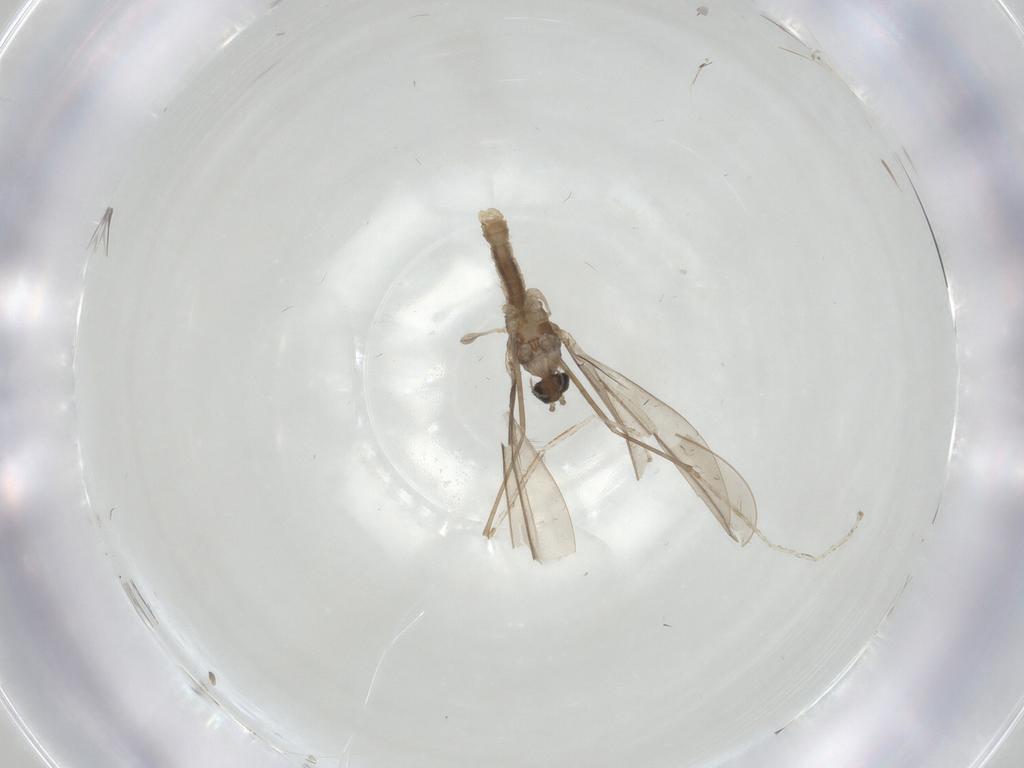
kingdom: Animalia
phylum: Arthropoda
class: Insecta
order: Diptera
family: Cecidomyiidae
